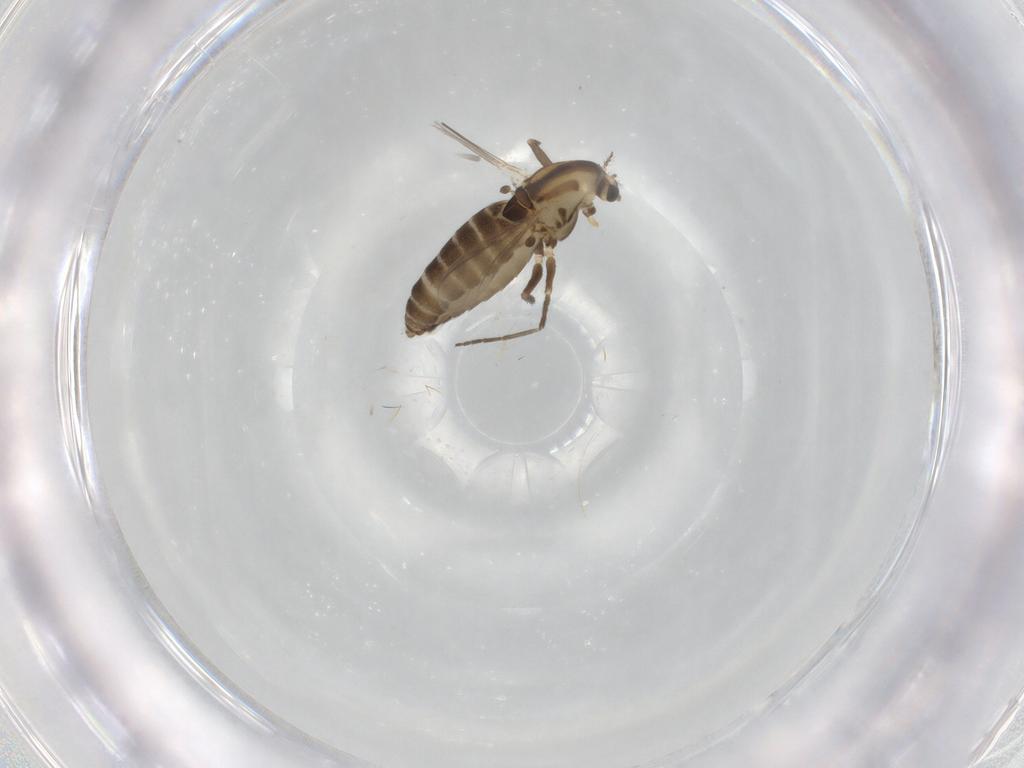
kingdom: Animalia
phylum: Arthropoda
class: Insecta
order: Diptera
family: Chironomidae
